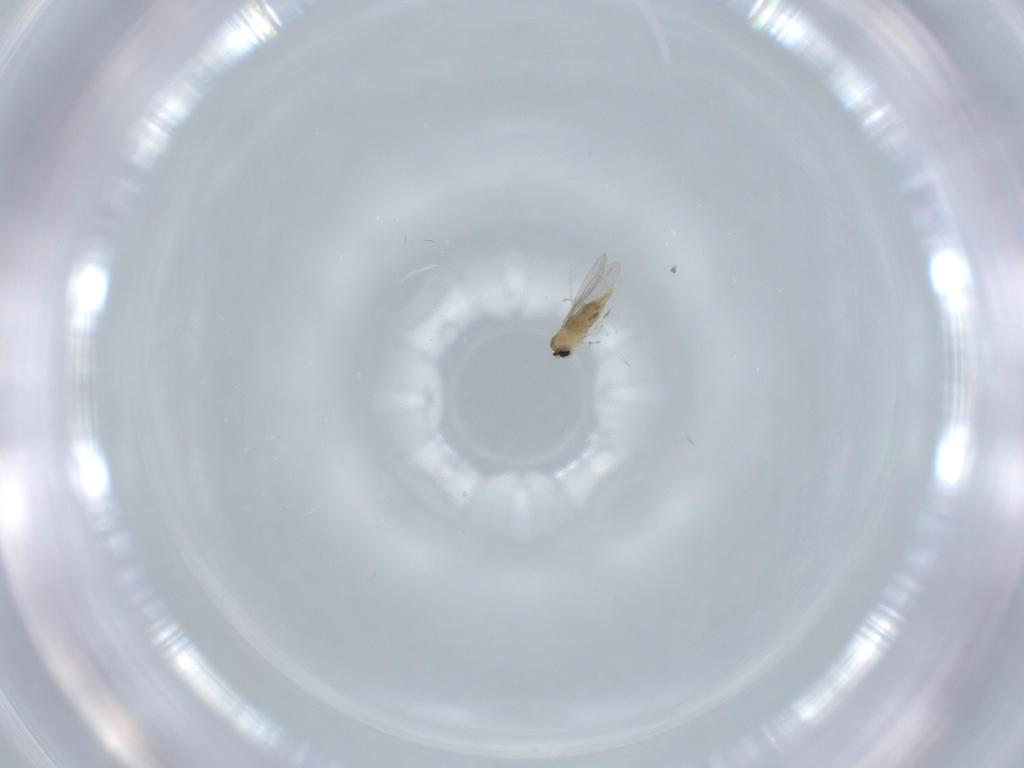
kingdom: Animalia
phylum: Arthropoda
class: Insecta
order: Diptera
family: Cecidomyiidae
